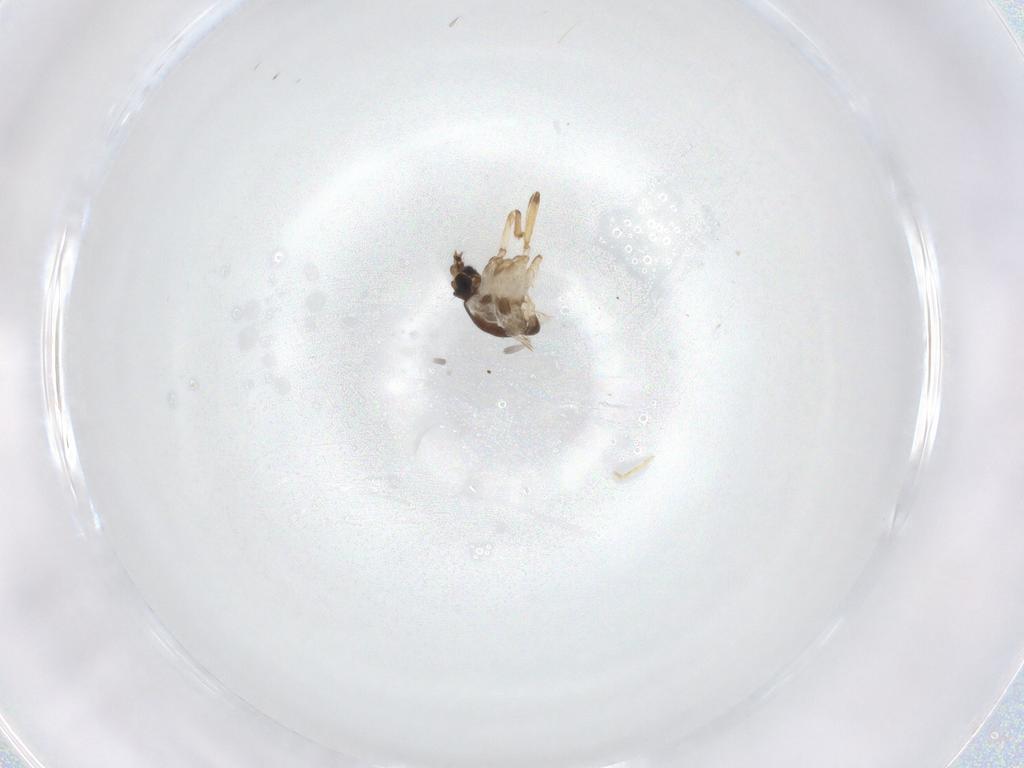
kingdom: Animalia
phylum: Arthropoda
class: Insecta
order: Diptera
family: Ceratopogonidae
